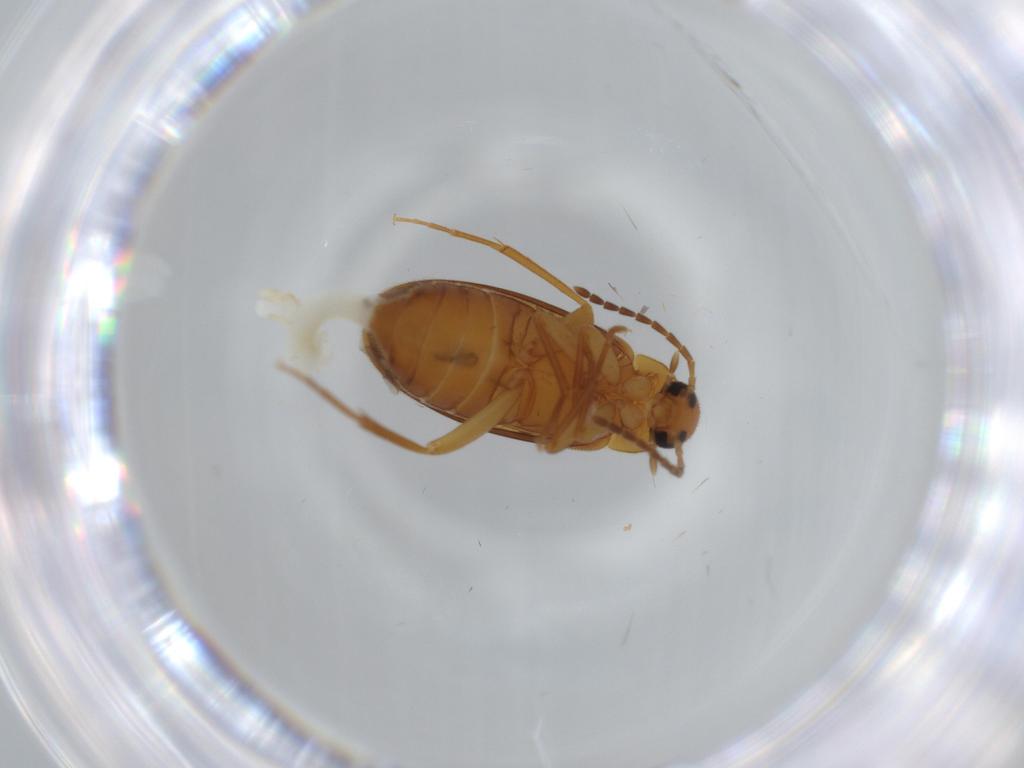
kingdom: Animalia
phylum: Arthropoda
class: Insecta
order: Coleoptera
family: Scraptiidae
